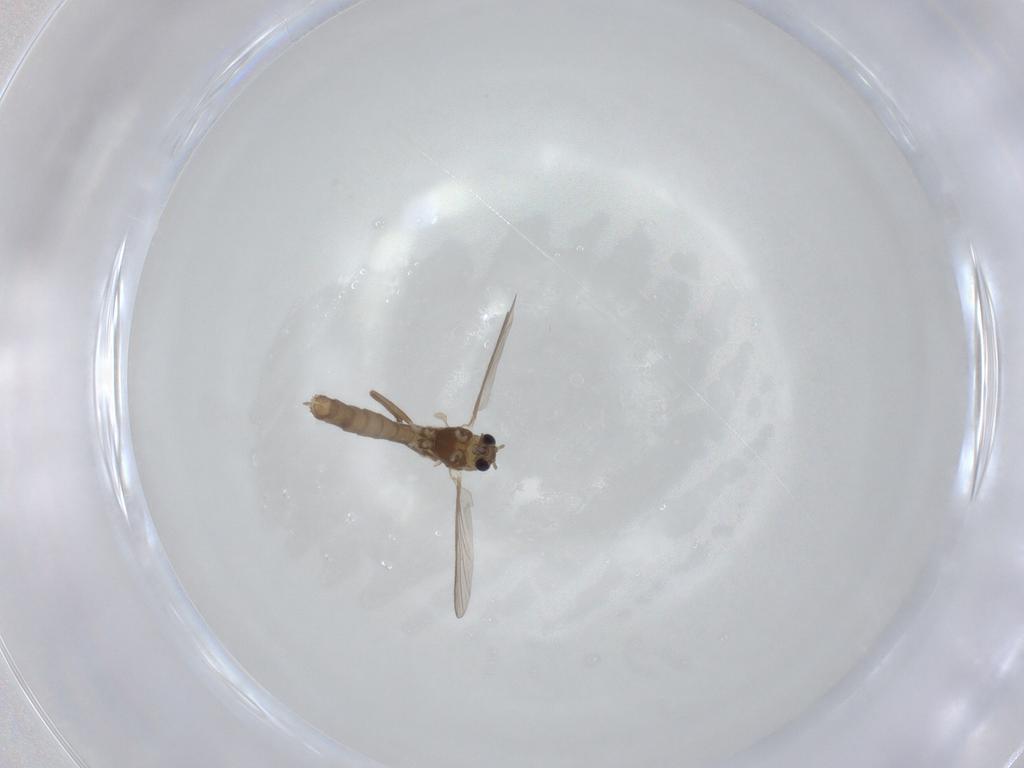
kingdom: Animalia
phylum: Arthropoda
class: Insecta
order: Diptera
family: Chironomidae
